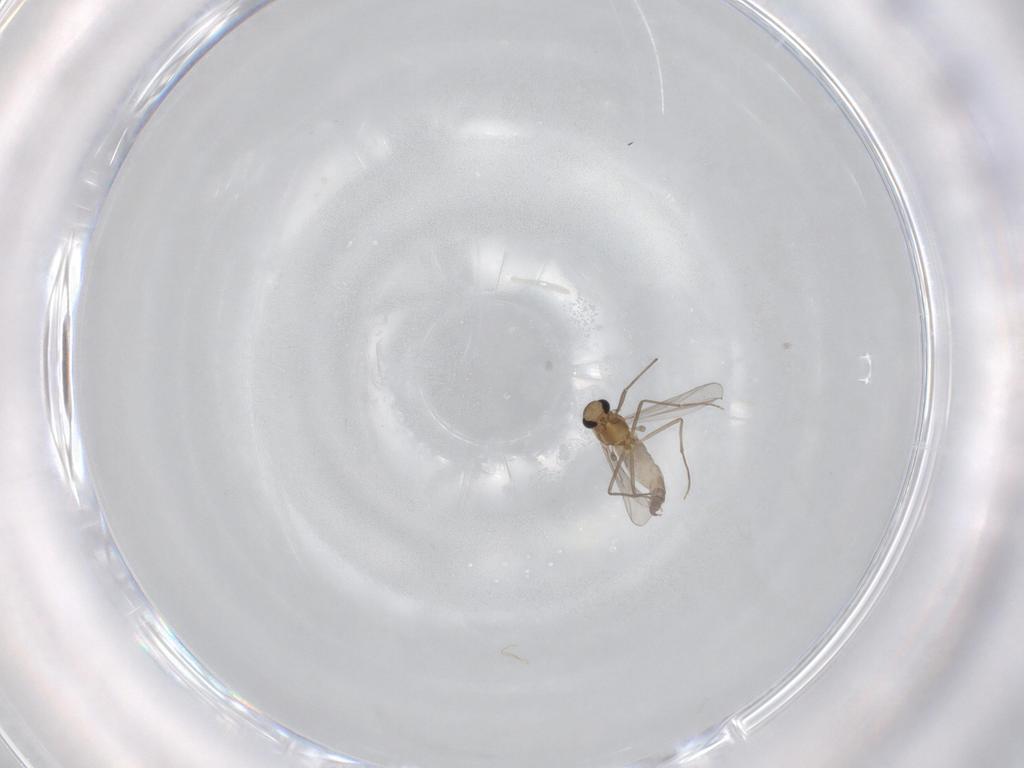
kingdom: Animalia
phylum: Arthropoda
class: Insecta
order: Diptera
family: Chironomidae
